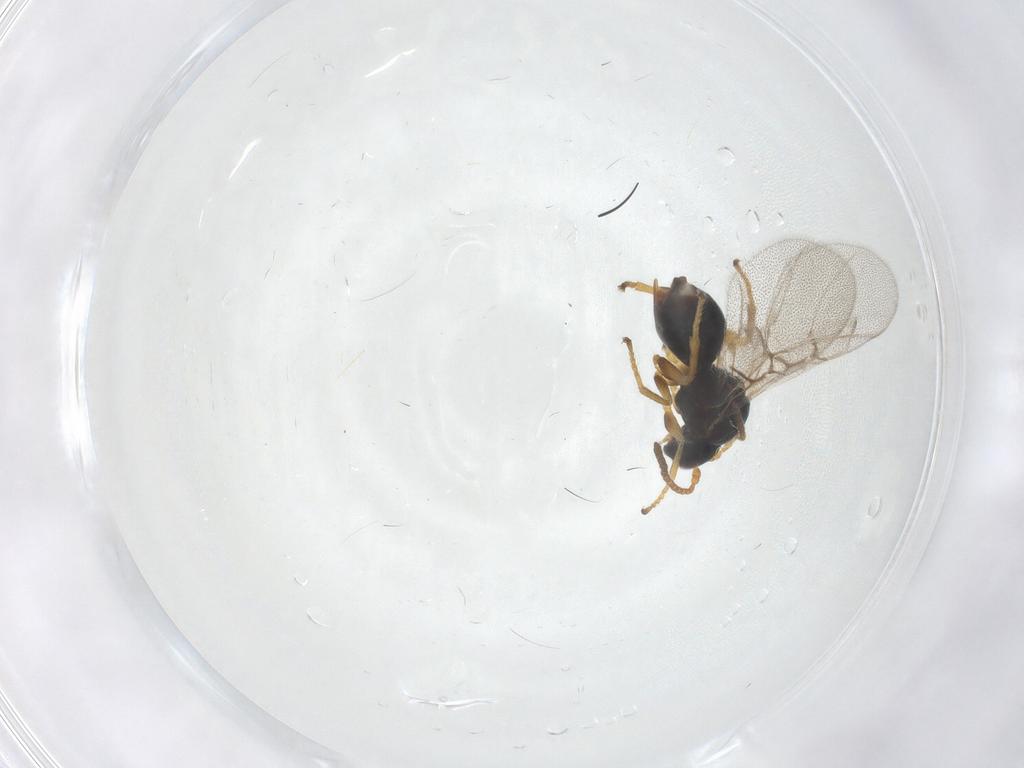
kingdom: Animalia
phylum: Arthropoda
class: Insecta
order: Hymenoptera
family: Cynipidae
